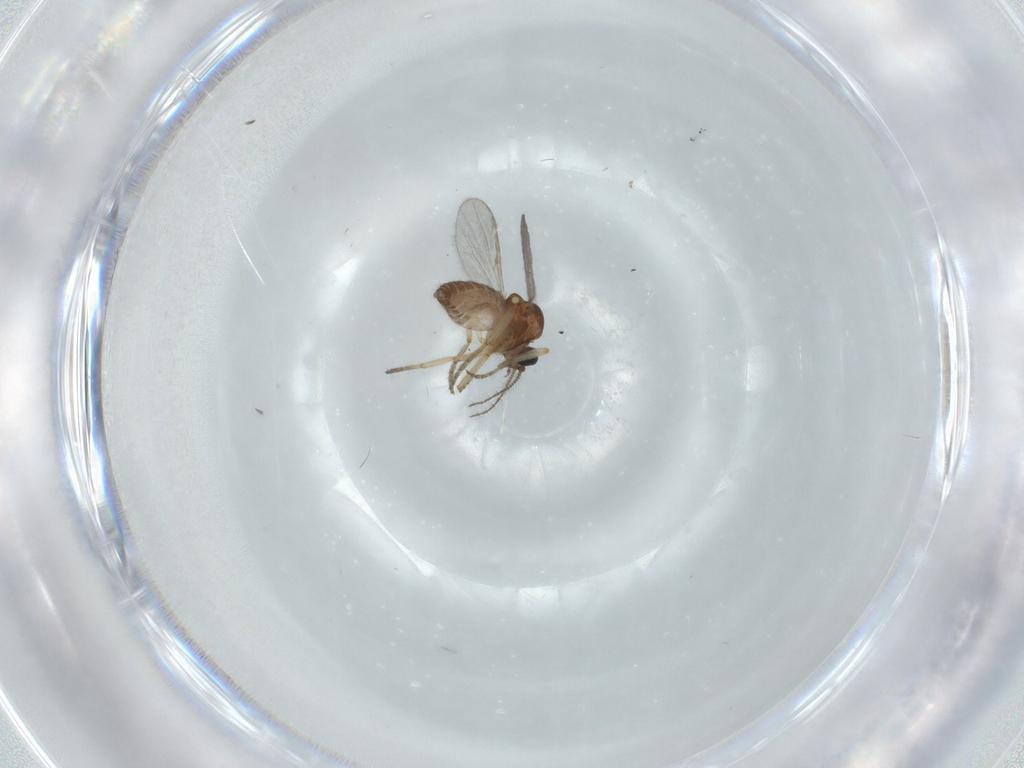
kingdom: Animalia
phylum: Arthropoda
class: Insecta
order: Diptera
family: Ceratopogonidae
